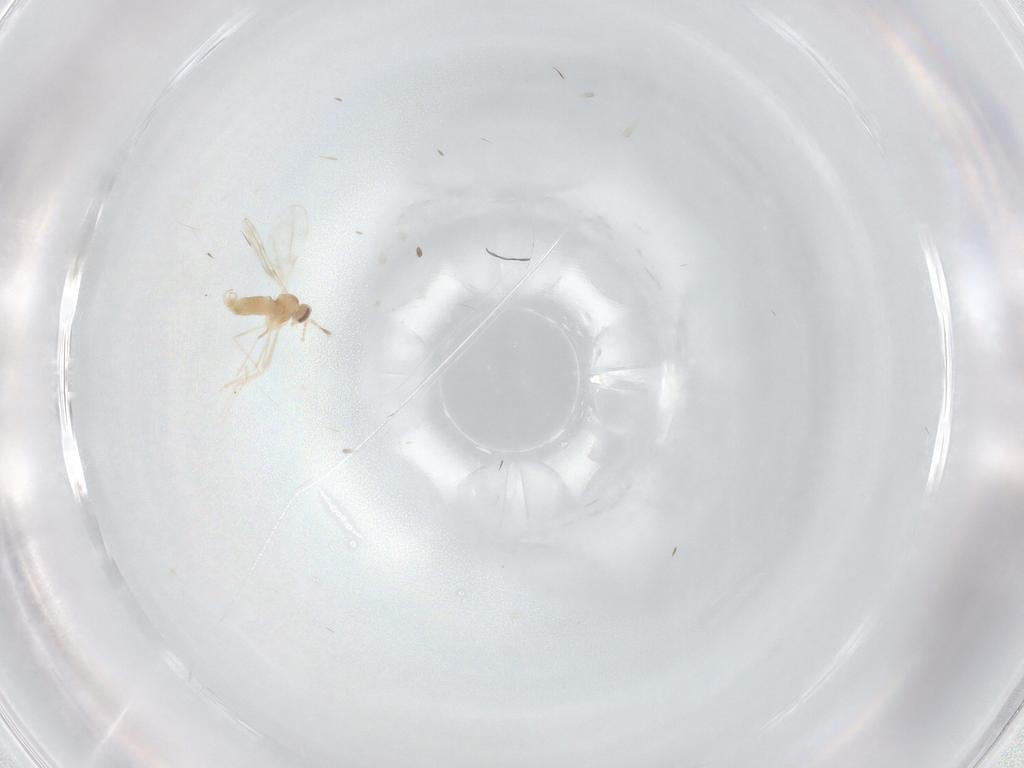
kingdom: Animalia
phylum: Arthropoda
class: Insecta
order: Diptera
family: Cecidomyiidae
